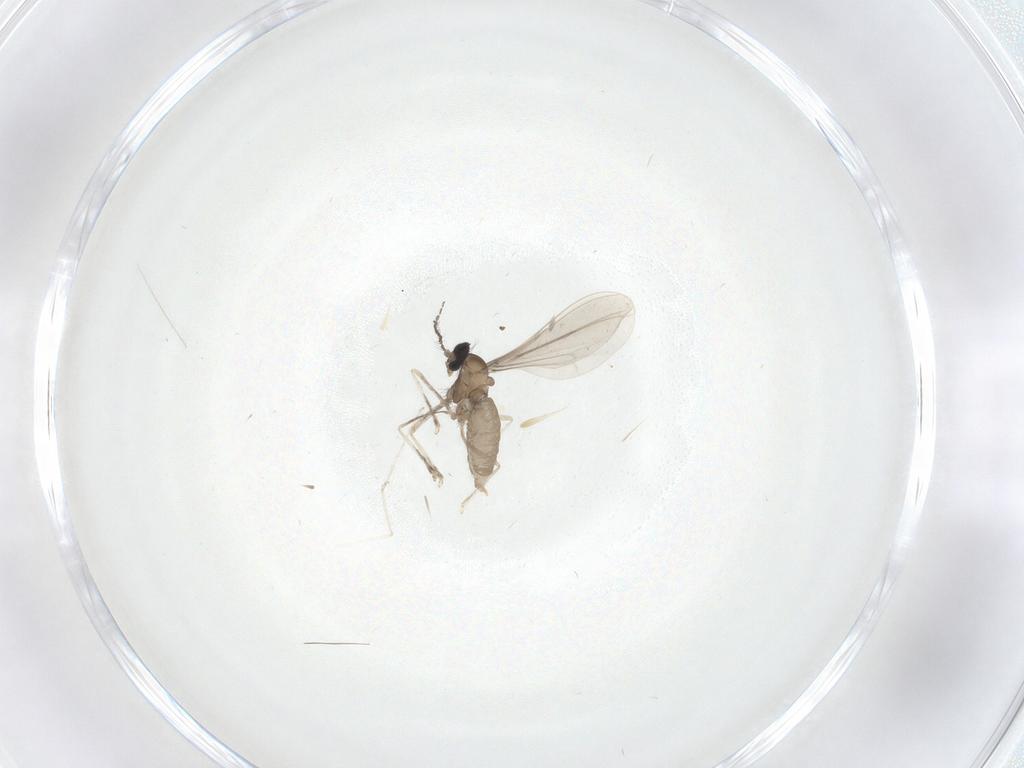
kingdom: Animalia
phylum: Arthropoda
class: Insecta
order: Diptera
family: Cecidomyiidae
